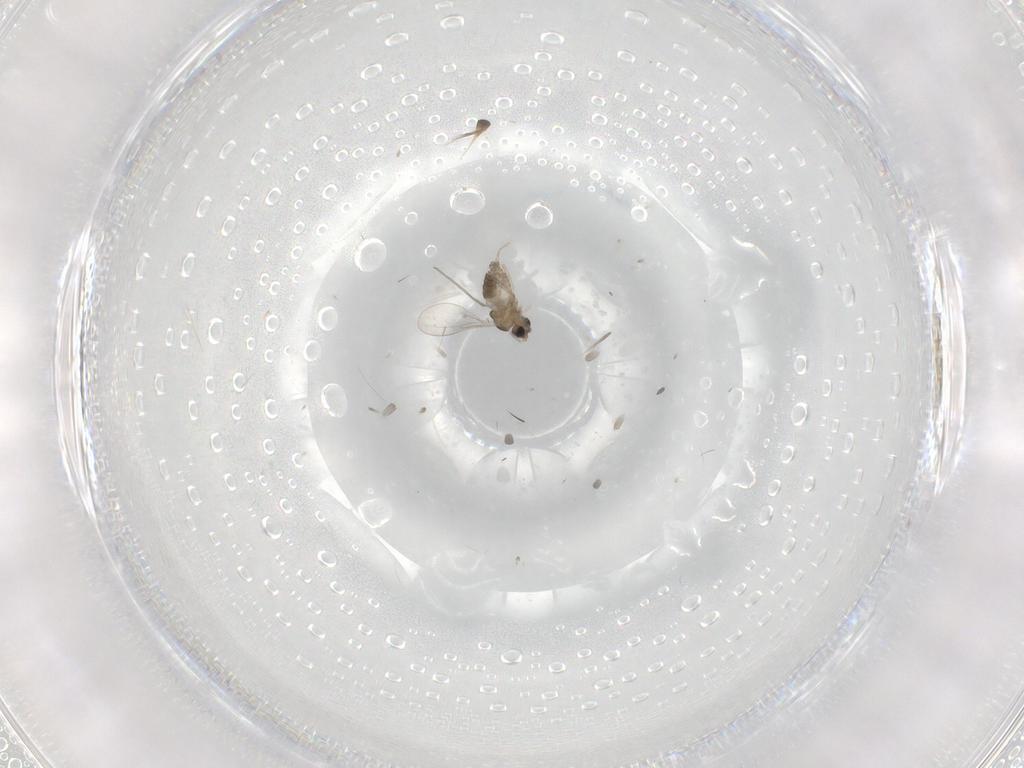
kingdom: Animalia
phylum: Arthropoda
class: Insecta
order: Diptera
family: Cecidomyiidae
